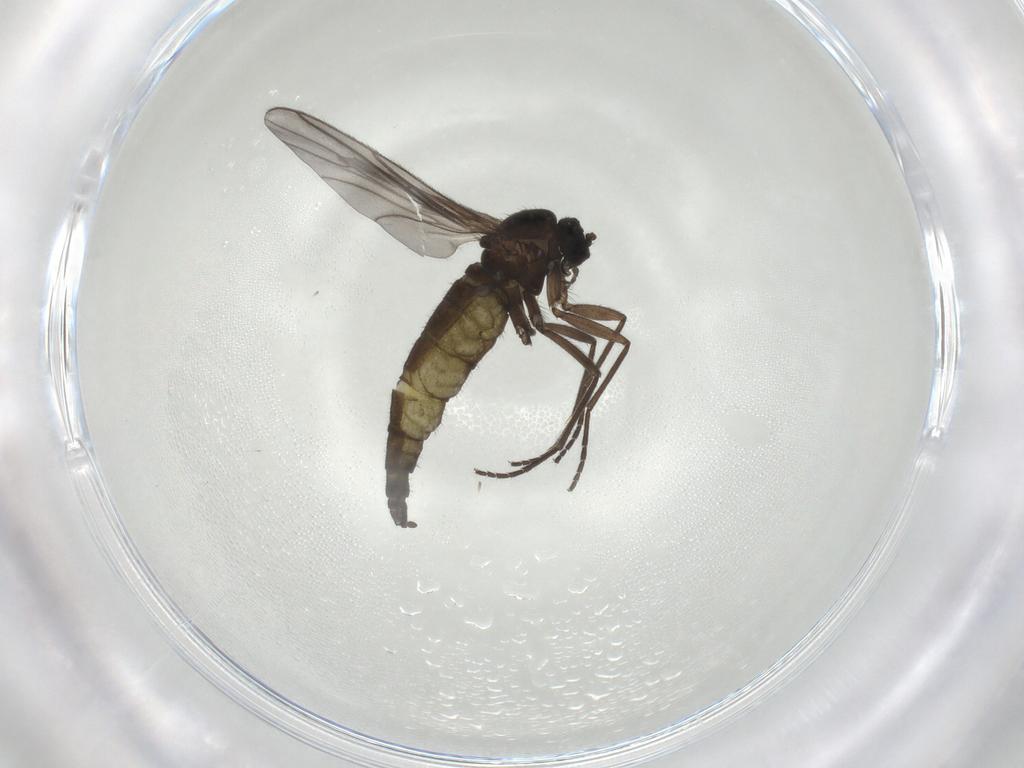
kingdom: Animalia
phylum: Arthropoda
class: Insecta
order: Diptera
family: Sciaridae
